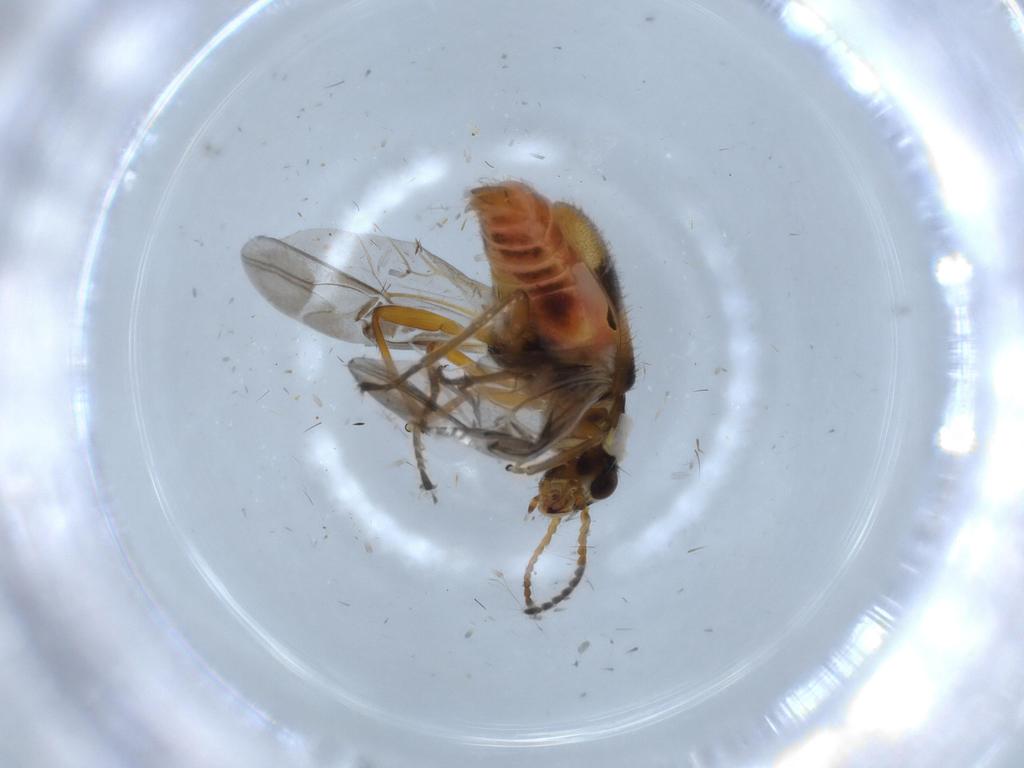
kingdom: Animalia
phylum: Arthropoda
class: Insecta
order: Coleoptera
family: Melyridae
